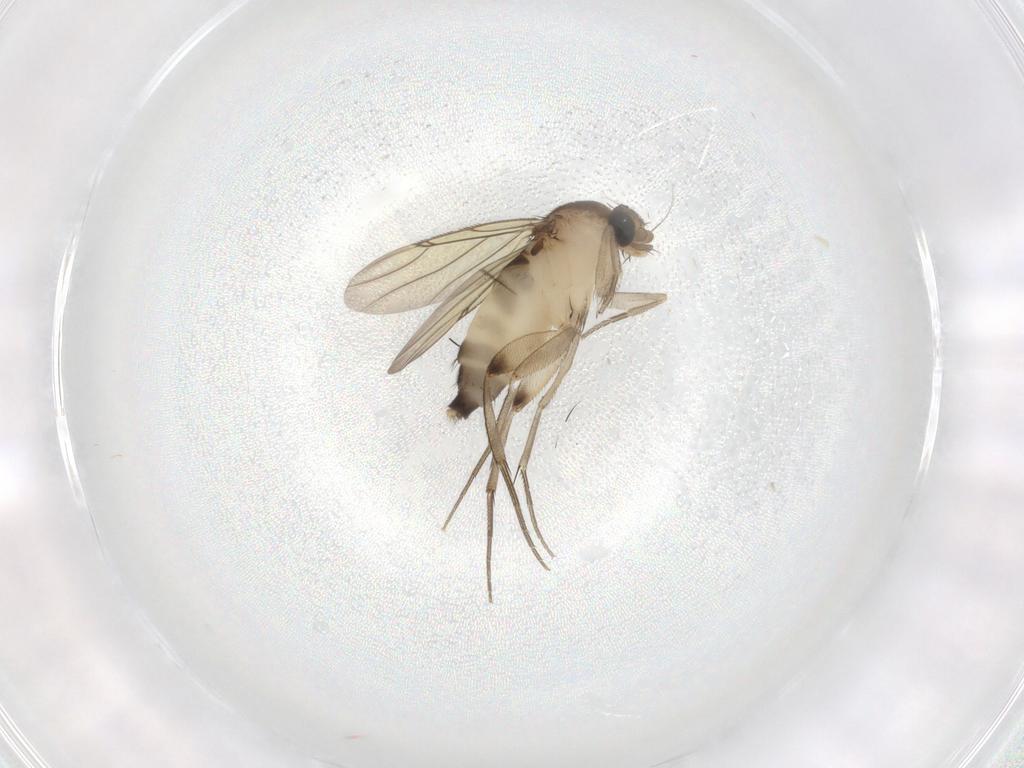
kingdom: Animalia
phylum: Arthropoda
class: Insecta
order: Diptera
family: Phoridae
